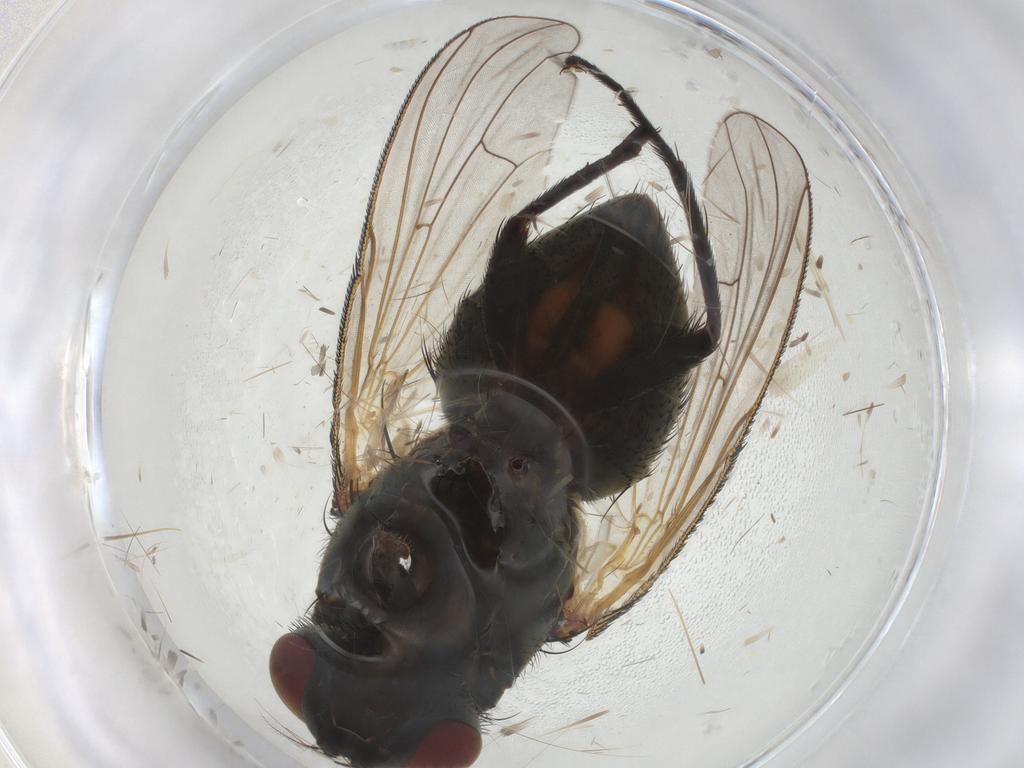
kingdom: Animalia
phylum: Arthropoda
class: Insecta
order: Diptera
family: Muscidae
